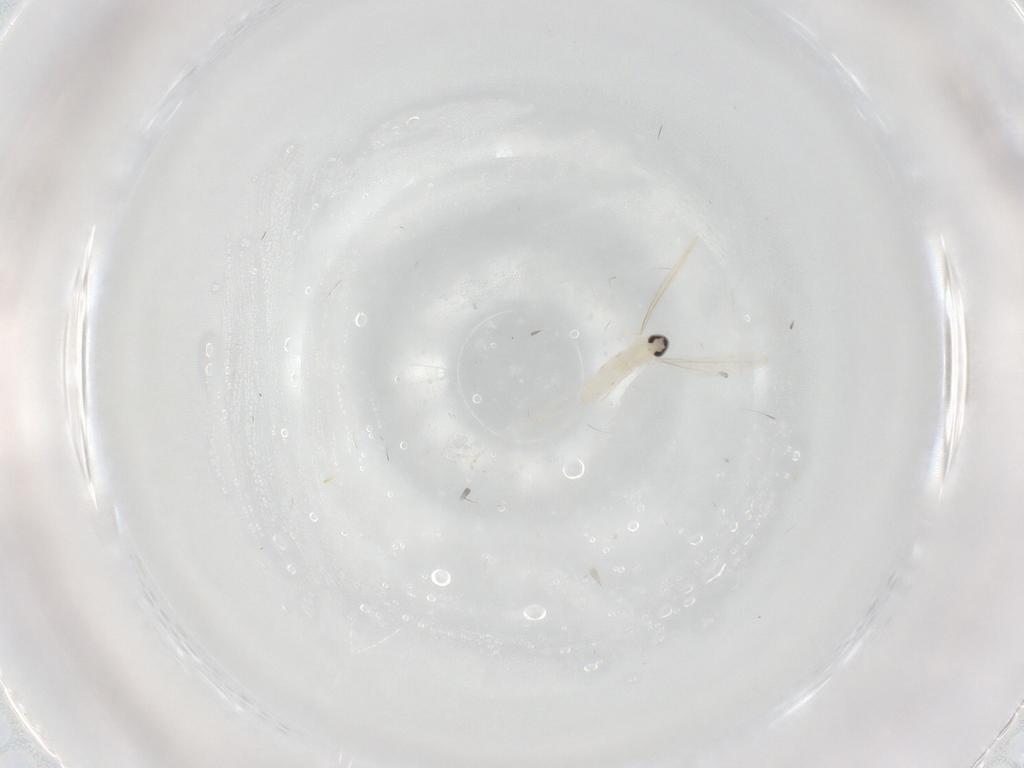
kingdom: Animalia
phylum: Arthropoda
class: Insecta
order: Diptera
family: Cecidomyiidae
